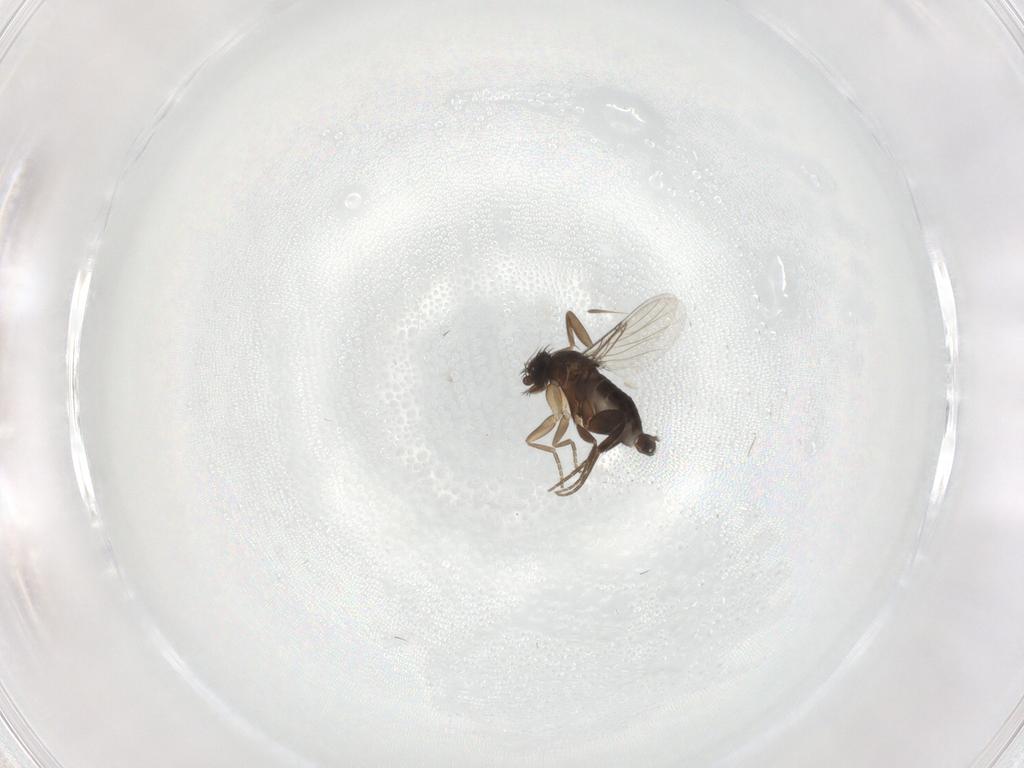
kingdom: Animalia
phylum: Arthropoda
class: Insecta
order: Diptera
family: Phoridae
